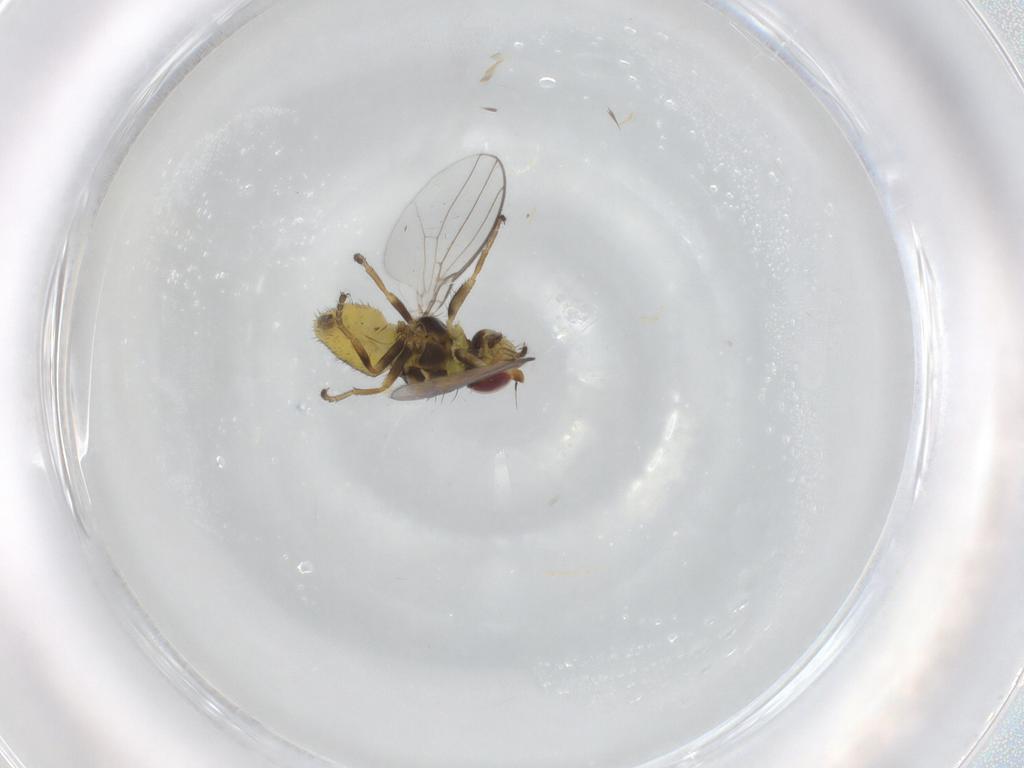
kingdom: Animalia
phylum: Arthropoda
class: Insecta
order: Diptera
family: Chloropidae
